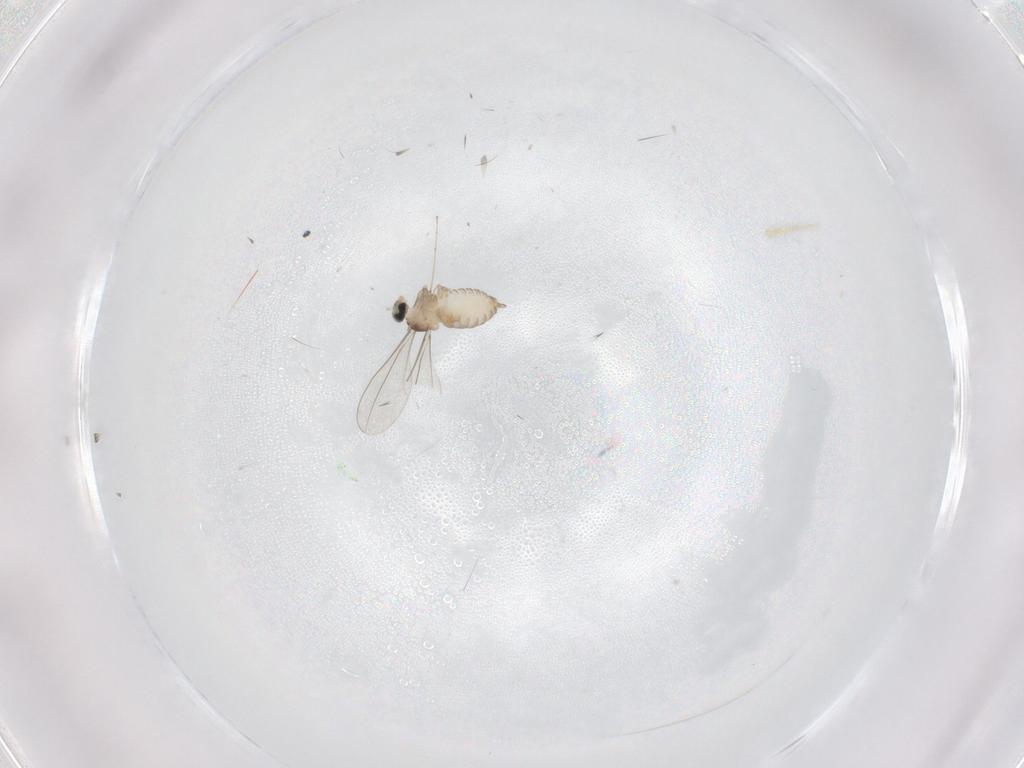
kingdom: Animalia
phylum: Arthropoda
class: Insecta
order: Diptera
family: Cecidomyiidae
